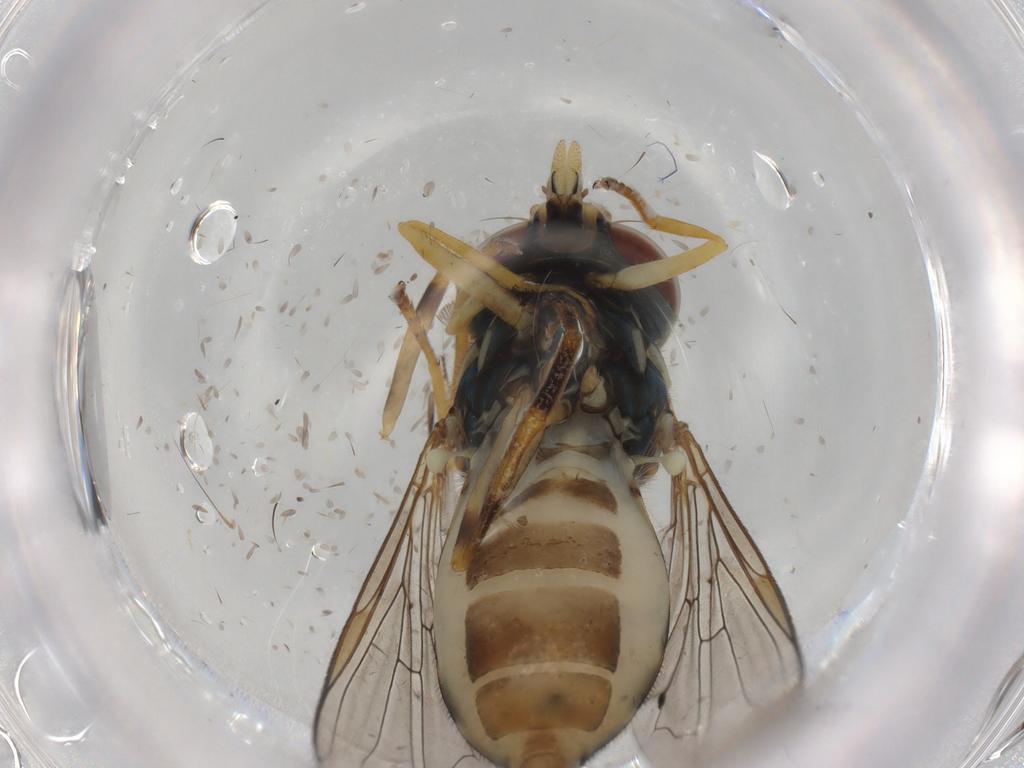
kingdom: Animalia
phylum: Arthropoda
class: Insecta
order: Diptera
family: Syrphidae
